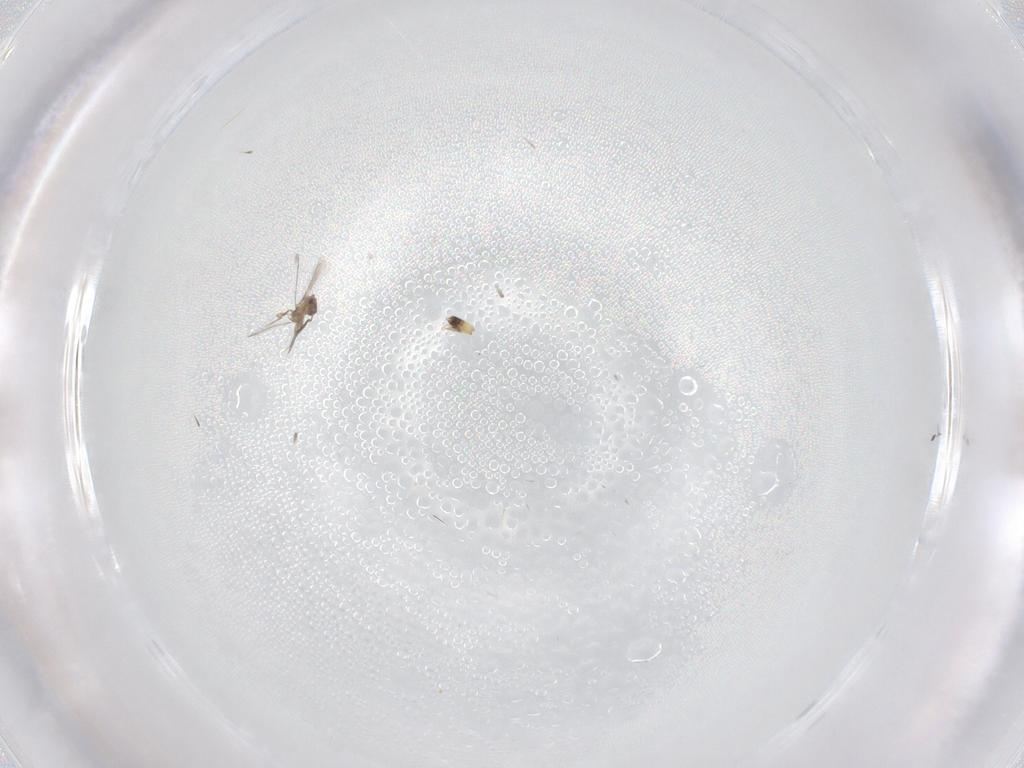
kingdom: Animalia
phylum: Arthropoda
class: Insecta
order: Hymenoptera
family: Mymaridae
